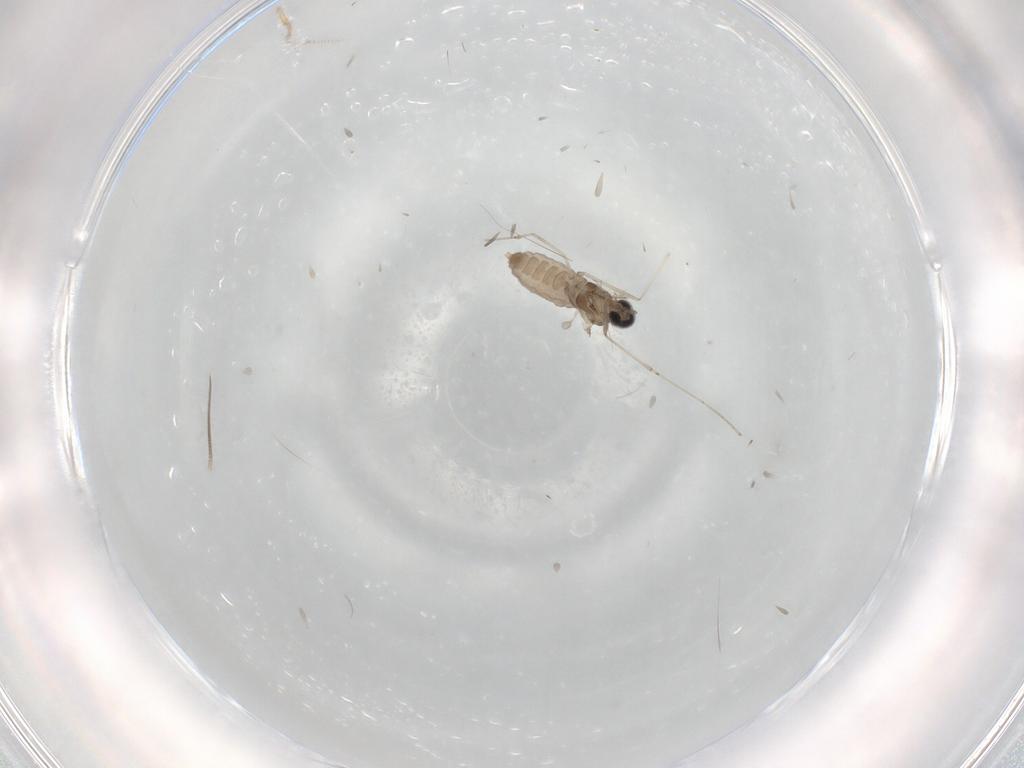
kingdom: Animalia
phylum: Arthropoda
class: Insecta
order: Diptera
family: Cecidomyiidae
